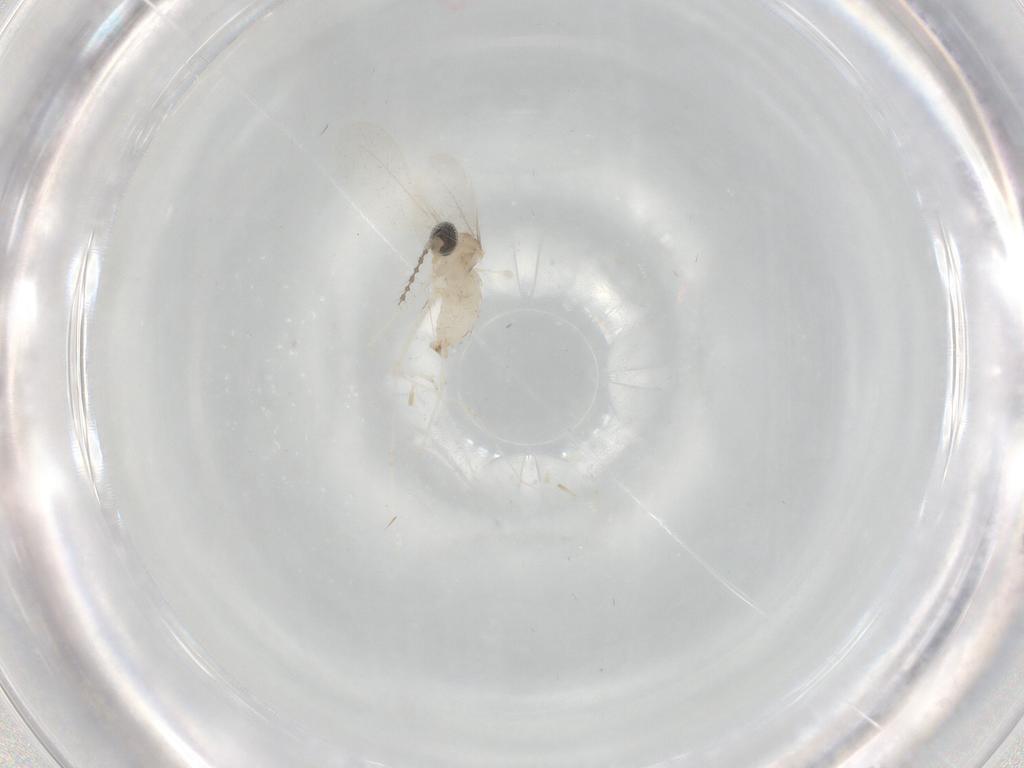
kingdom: Animalia
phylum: Arthropoda
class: Insecta
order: Diptera
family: Cecidomyiidae
